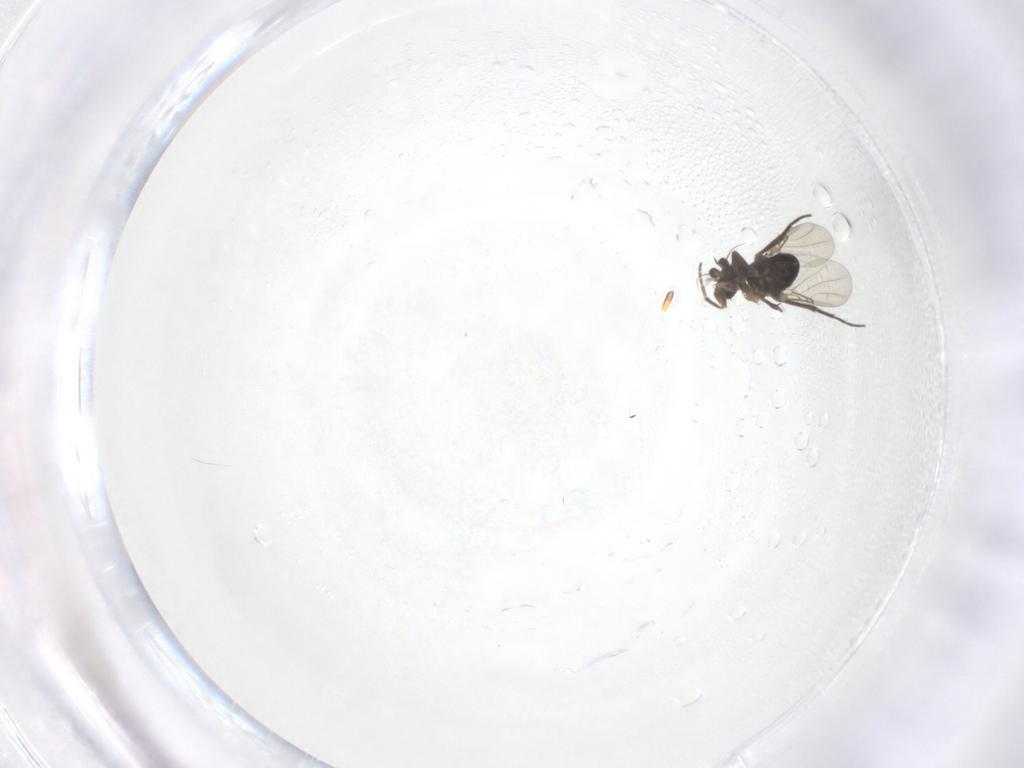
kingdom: Animalia
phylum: Arthropoda
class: Insecta
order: Diptera
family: Phoridae
